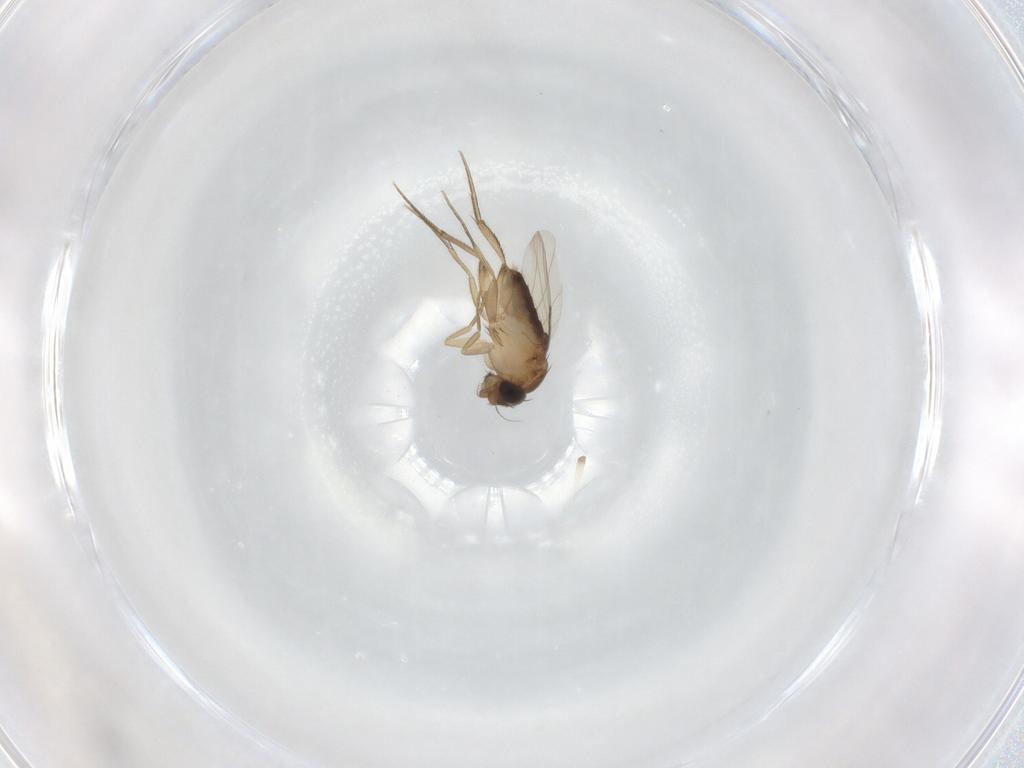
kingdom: Animalia
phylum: Arthropoda
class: Insecta
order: Diptera
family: Phoridae
